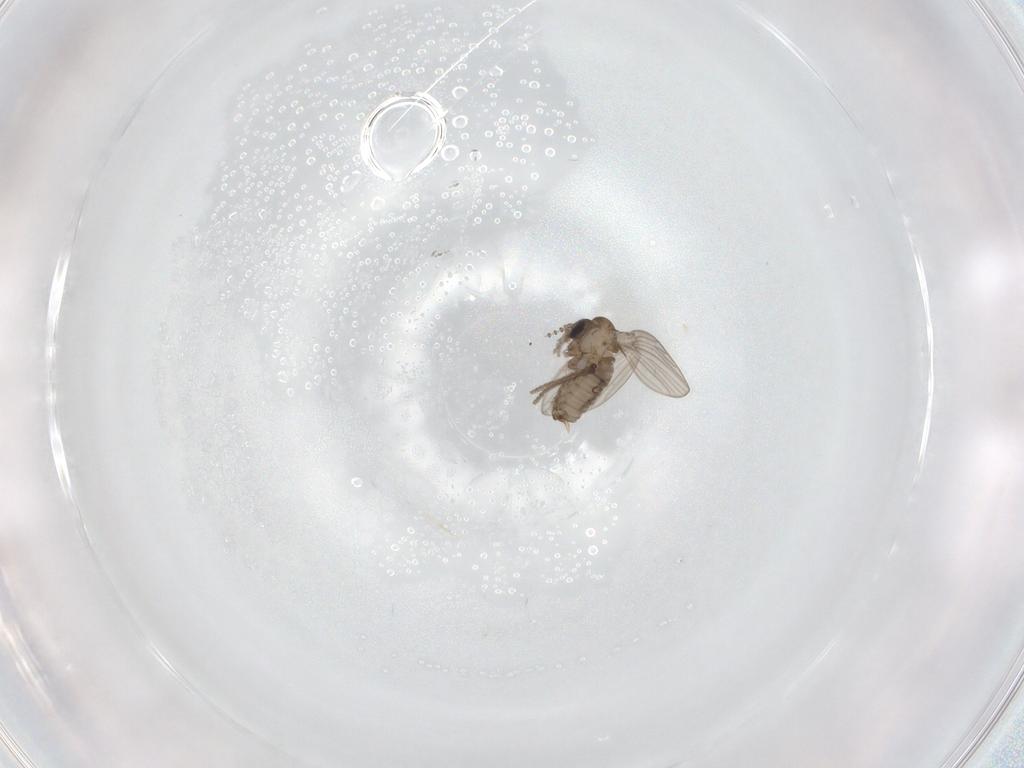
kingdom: Animalia
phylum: Arthropoda
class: Insecta
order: Diptera
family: Psychodidae
